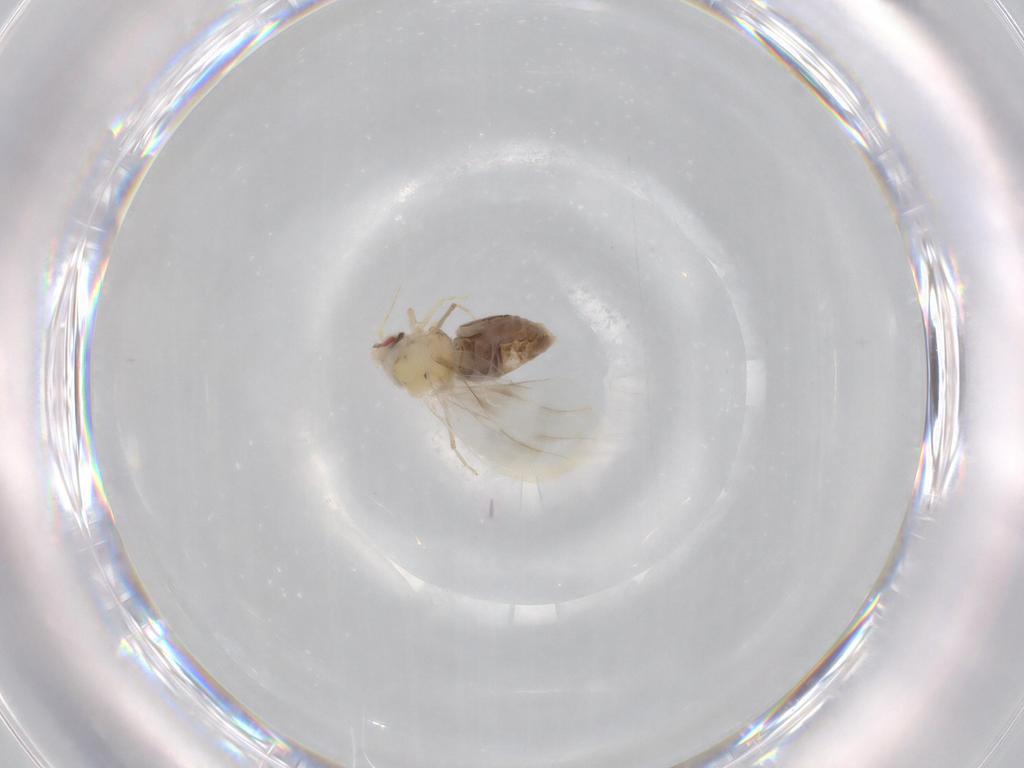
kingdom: Animalia
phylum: Arthropoda
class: Insecta
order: Hemiptera
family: Aleyrodidae
